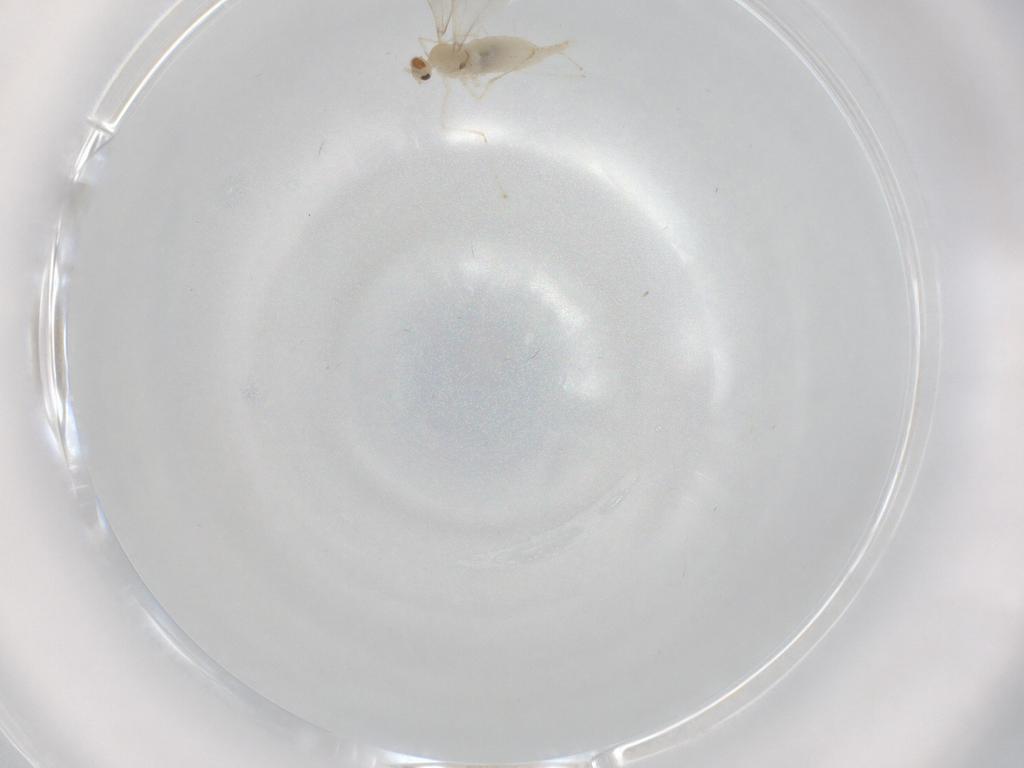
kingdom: Animalia
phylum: Arthropoda
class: Insecta
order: Diptera
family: Cecidomyiidae
